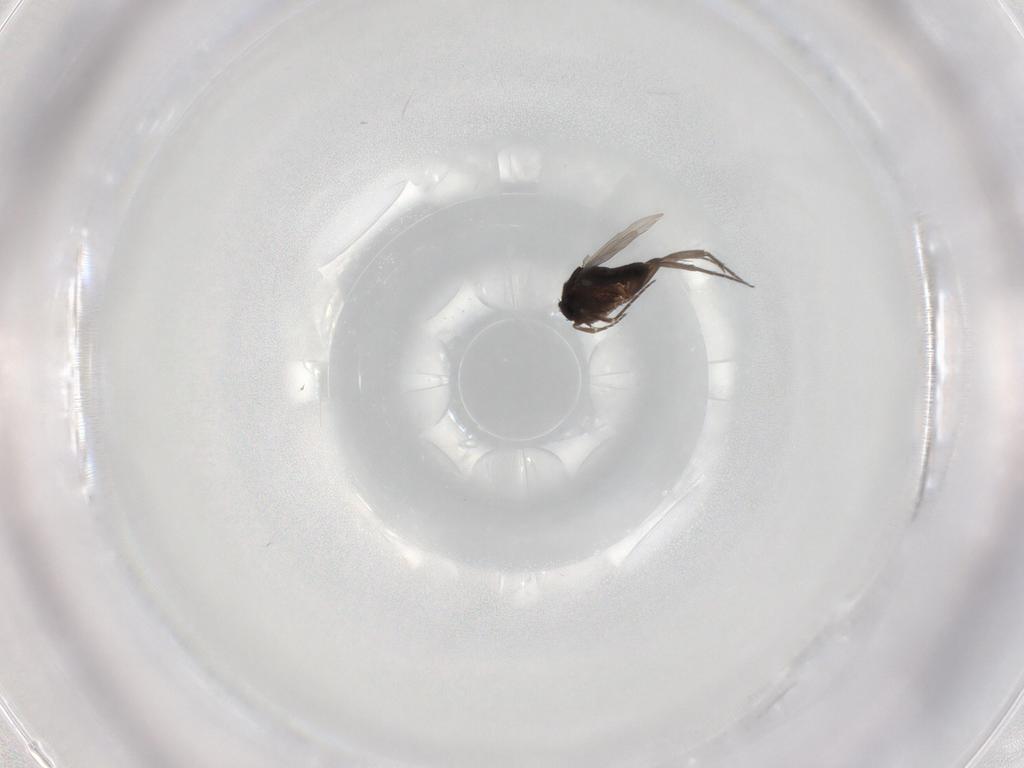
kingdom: Animalia
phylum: Arthropoda
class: Insecta
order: Diptera
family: Phoridae
